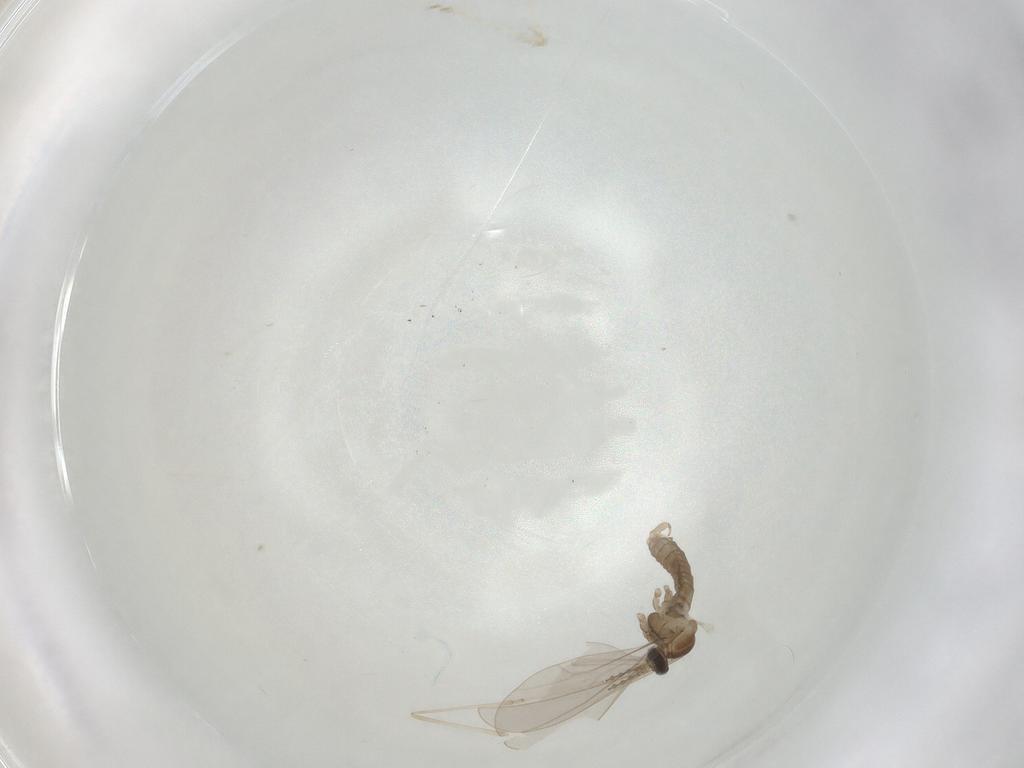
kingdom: Animalia
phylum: Arthropoda
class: Insecta
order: Diptera
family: Cecidomyiidae
